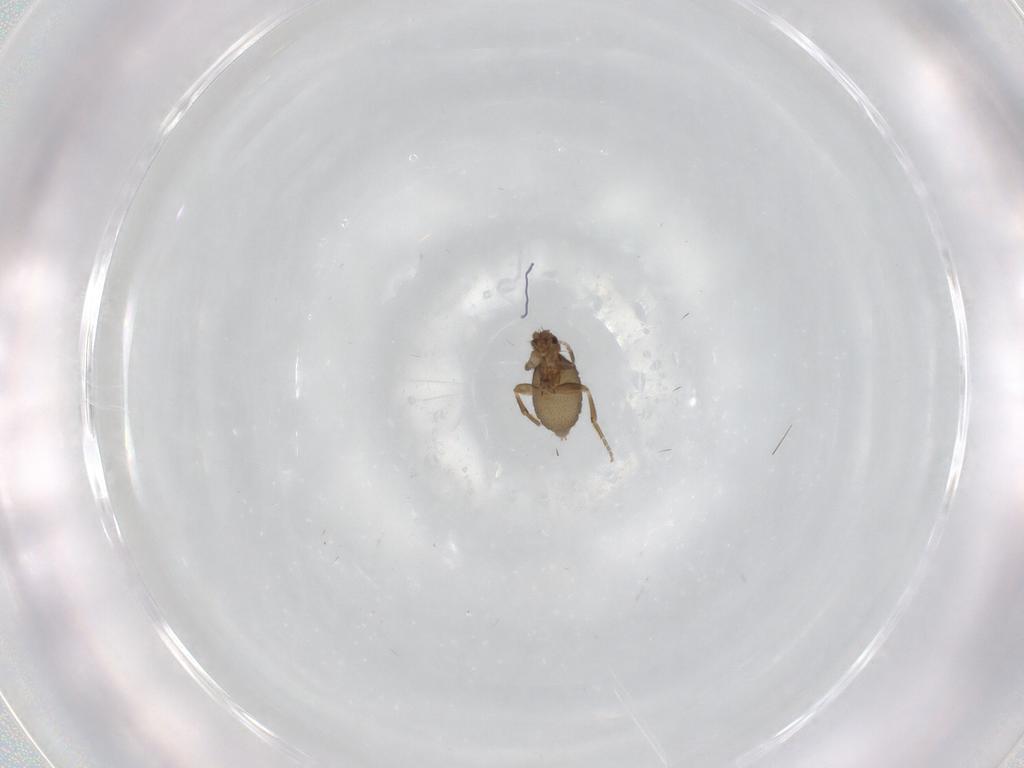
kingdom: Animalia
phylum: Arthropoda
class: Insecta
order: Diptera
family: Phoridae
